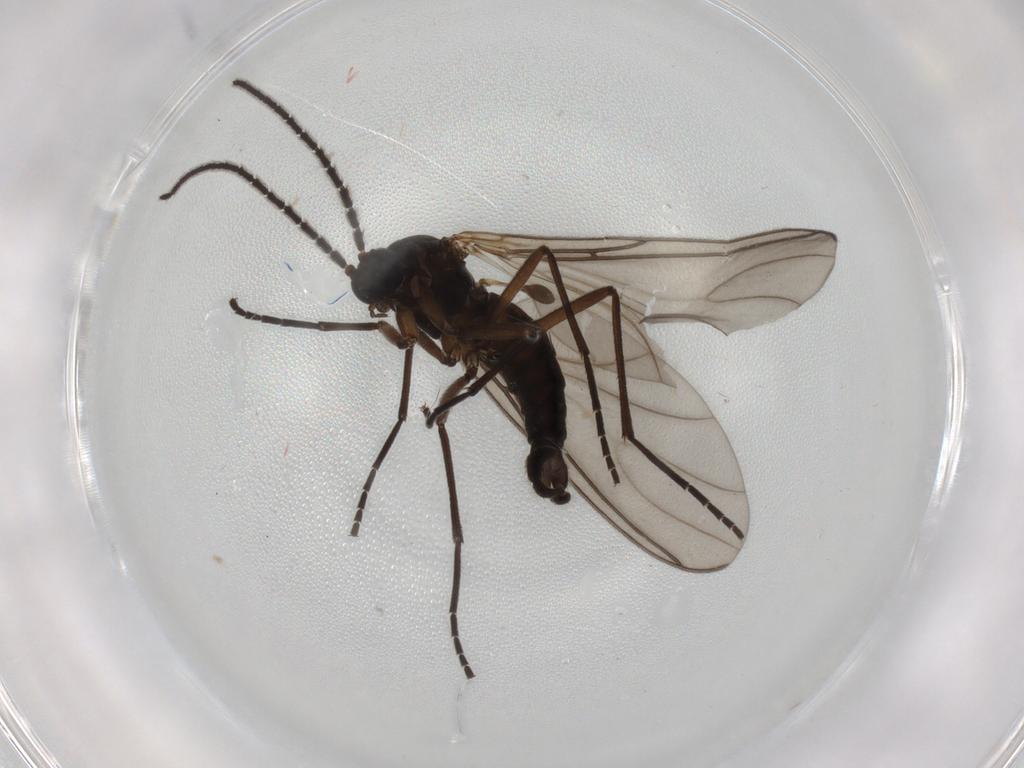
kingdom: Animalia
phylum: Arthropoda
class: Insecta
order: Diptera
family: Sciaridae
